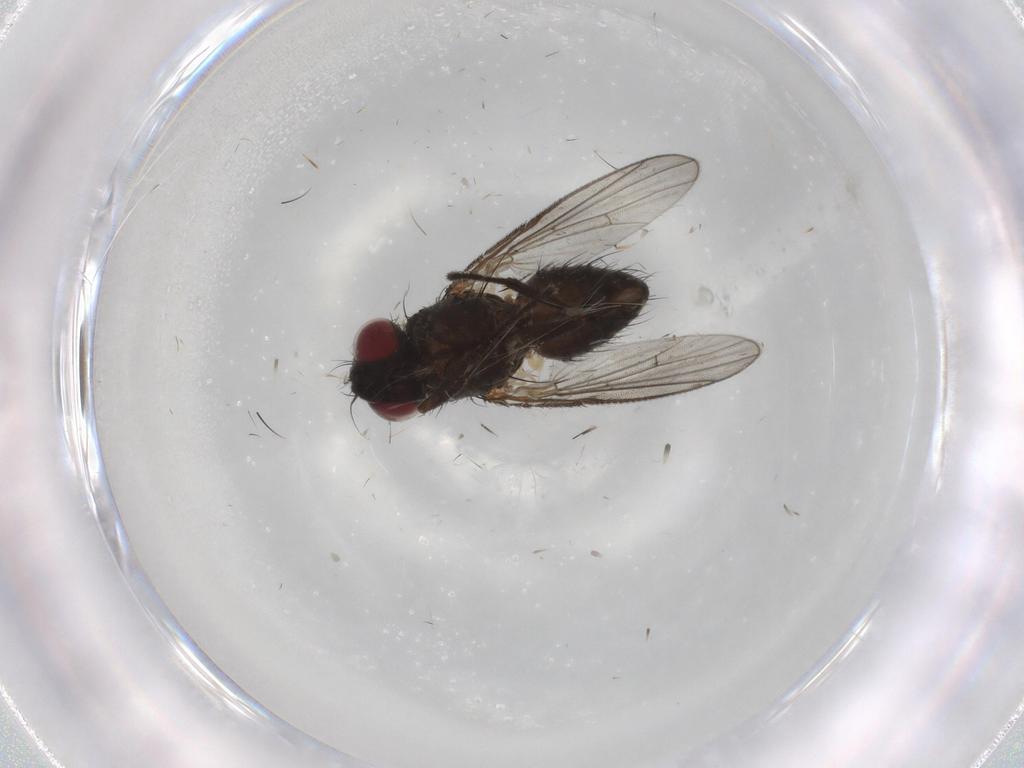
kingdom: Animalia
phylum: Arthropoda
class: Insecta
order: Diptera
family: Muscidae
